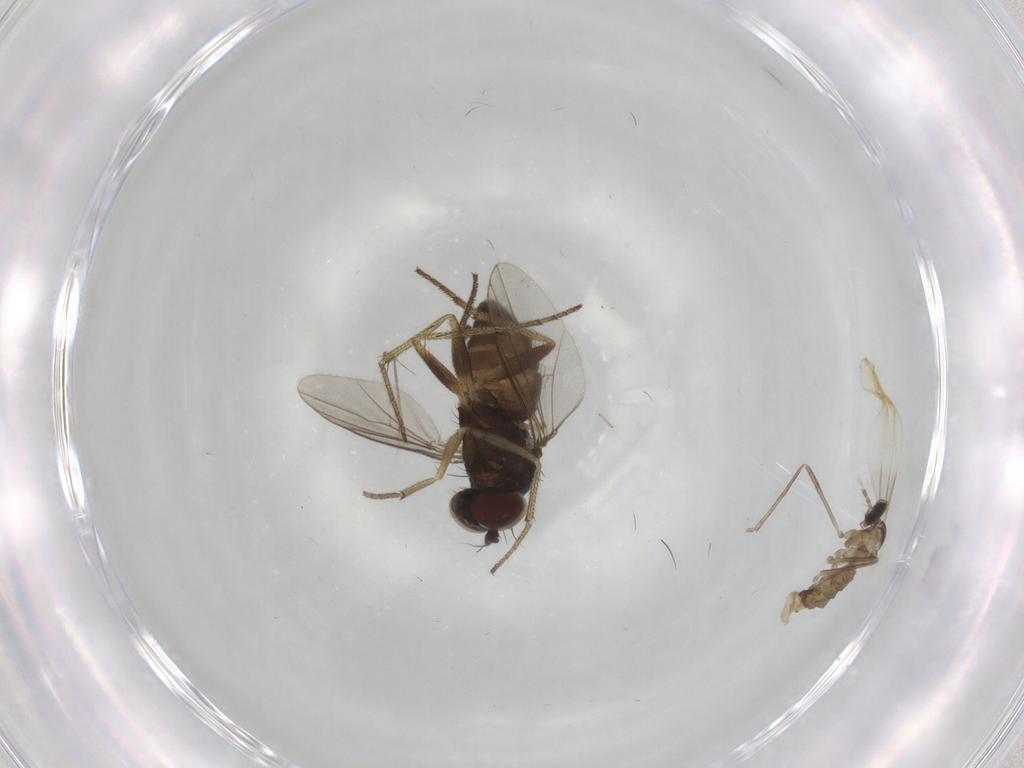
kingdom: Animalia
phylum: Arthropoda
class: Insecta
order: Diptera
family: Cecidomyiidae
